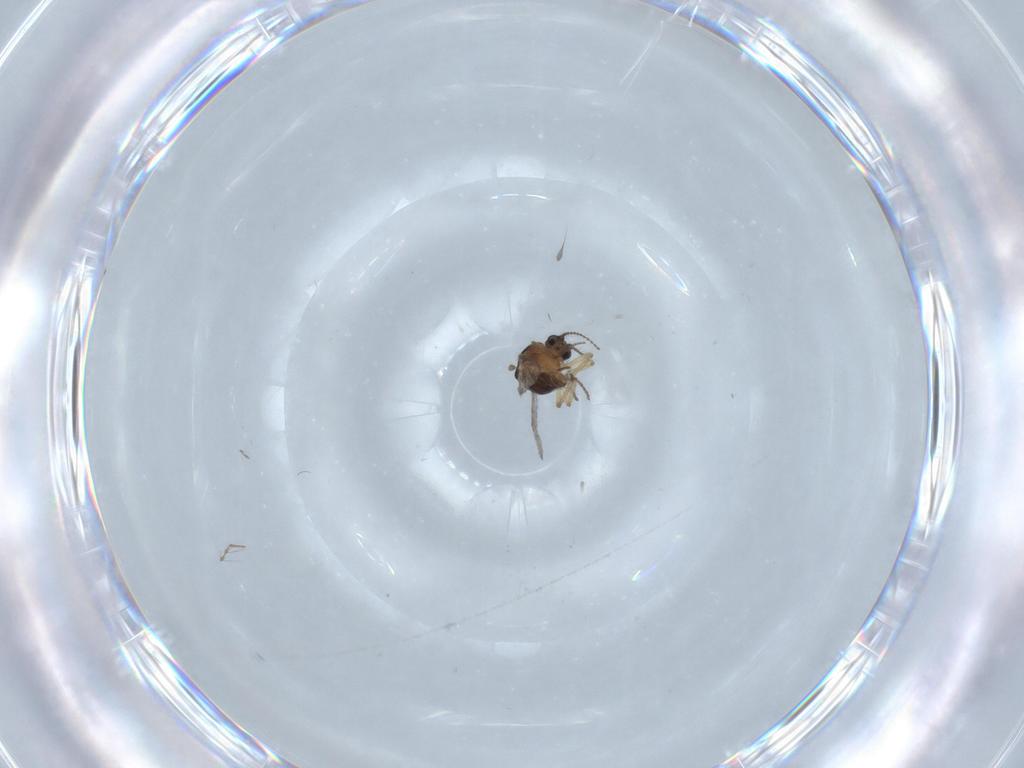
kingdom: Animalia
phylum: Arthropoda
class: Insecta
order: Diptera
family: Ceratopogonidae
